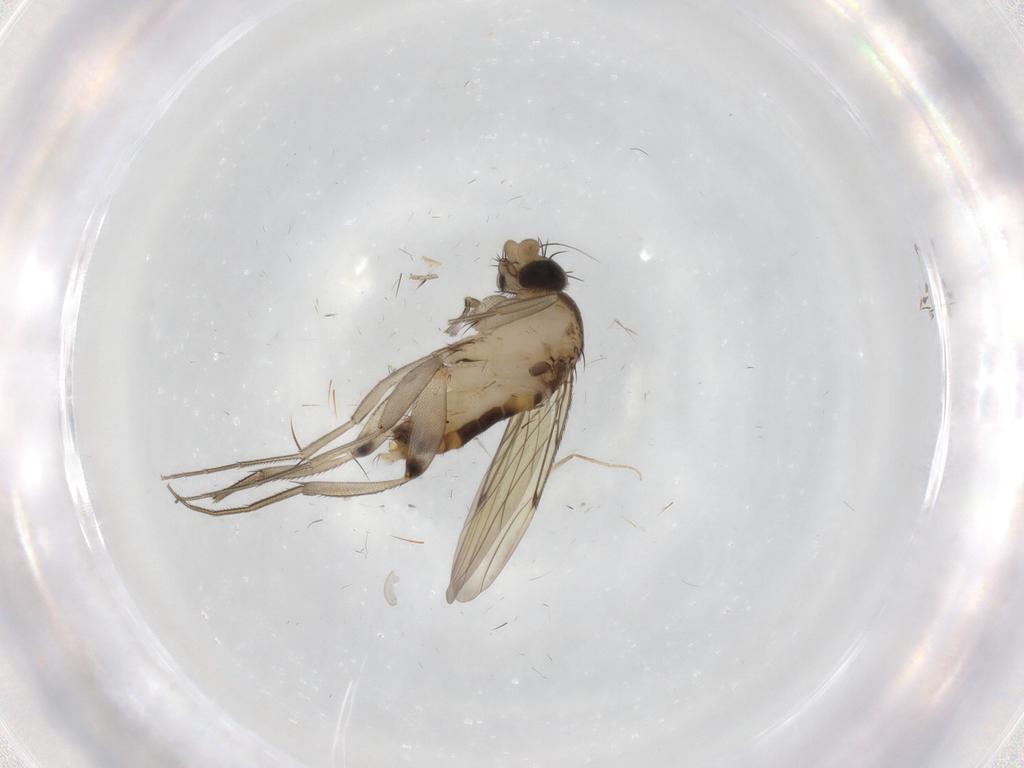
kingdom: Animalia
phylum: Arthropoda
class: Insecta
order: Diptera
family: Chironomidae
